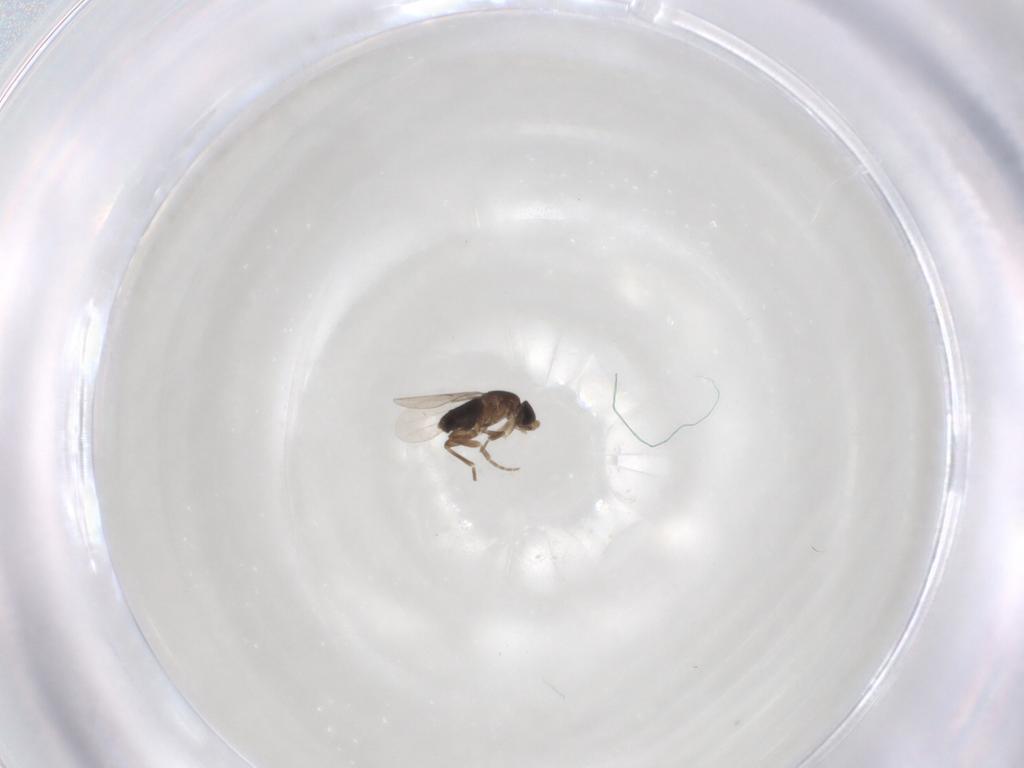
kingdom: Animalia
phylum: Arthropoda
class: Insecta
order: Diptera
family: Phoridae
